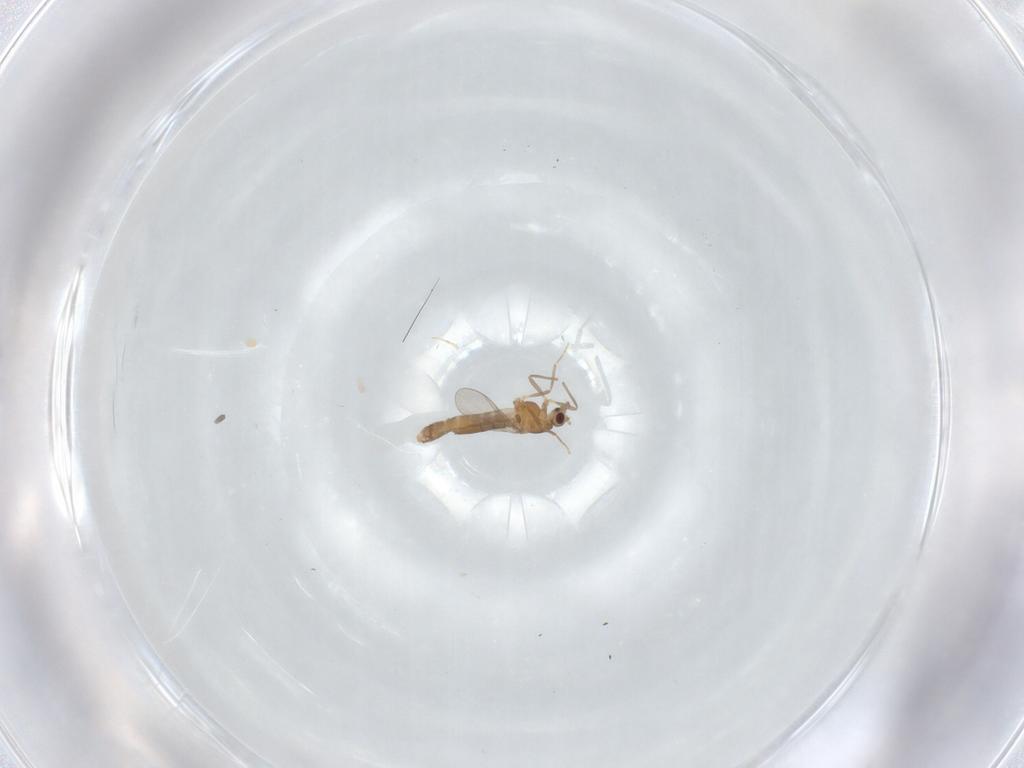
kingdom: Animalia
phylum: Arthropoda
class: Insecta
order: Diptera
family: Chironomidae
